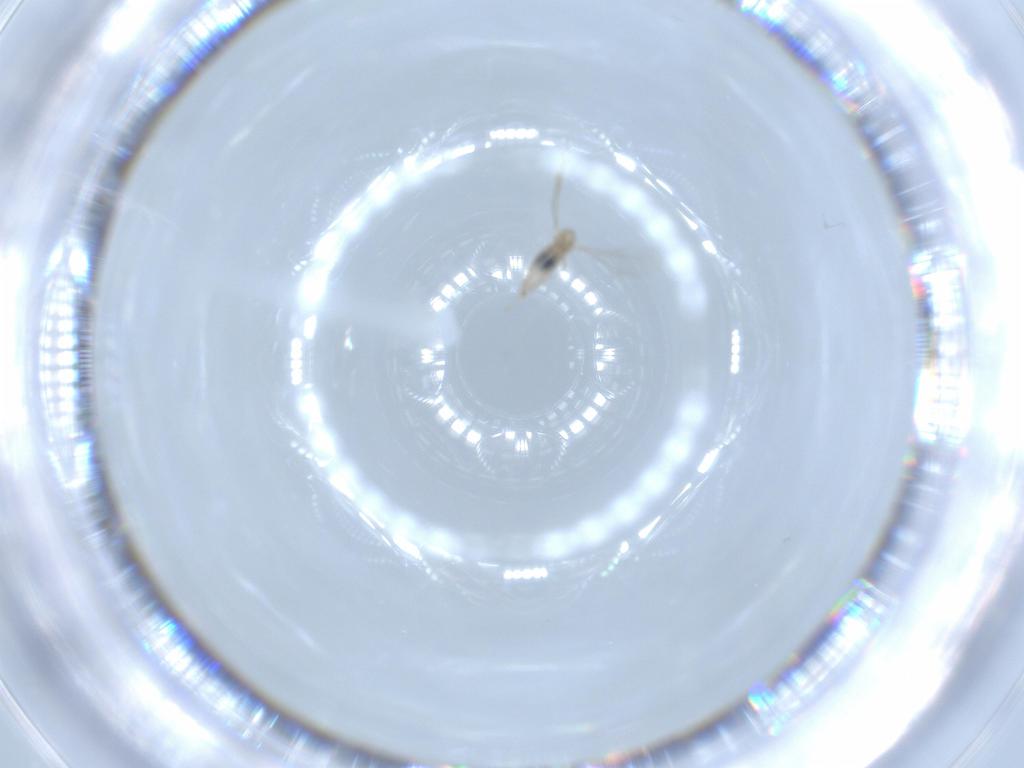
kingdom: Animalia
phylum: Arthropoda
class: Insecta
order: Diptera
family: Cecidomyiidae
